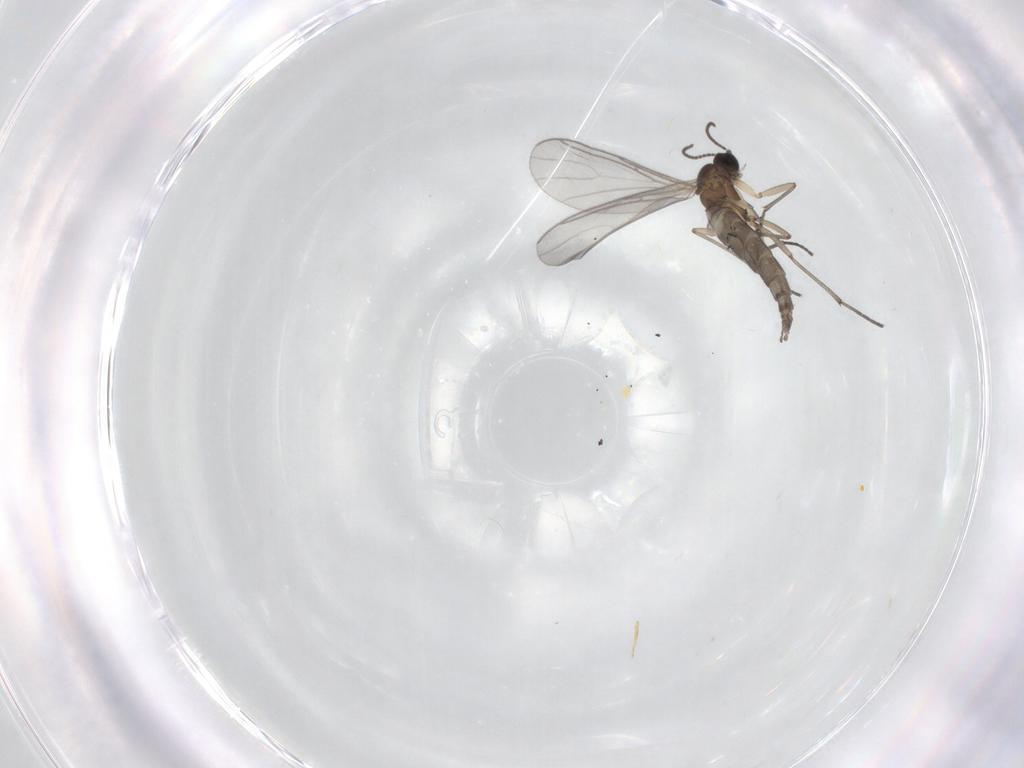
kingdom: Animalia
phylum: Arthropoda
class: Insecta
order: Diptera
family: Sciaridae
